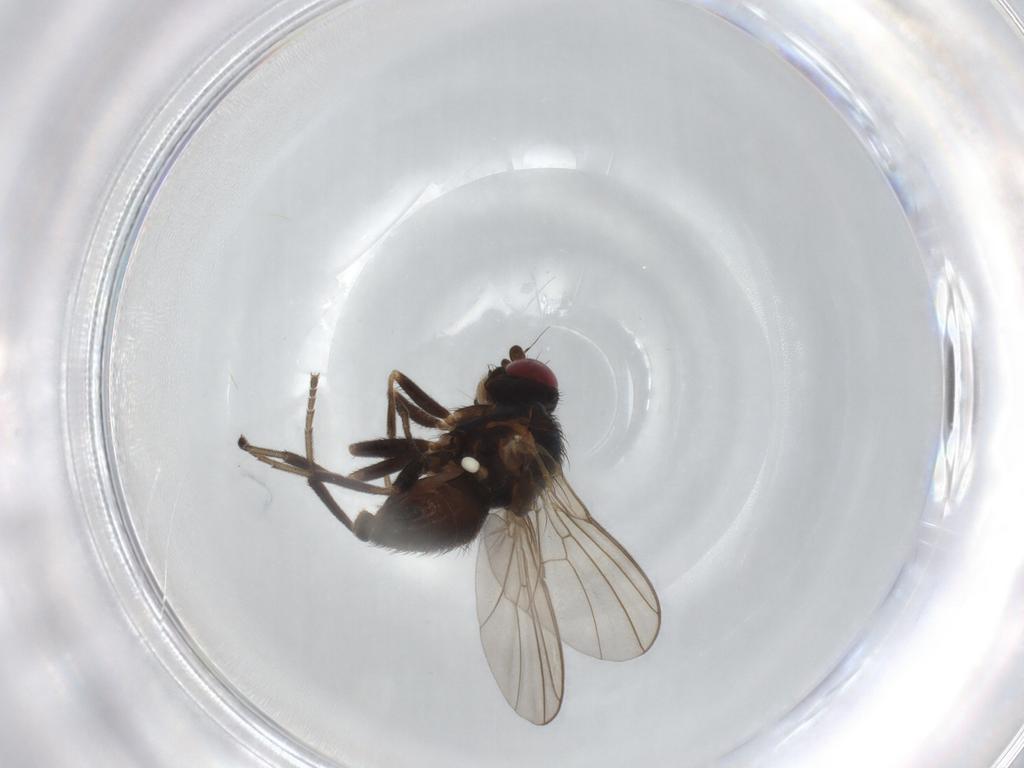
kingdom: Animalia
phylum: Arthropoda
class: Insecta
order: Diptera
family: Agromyzidae
